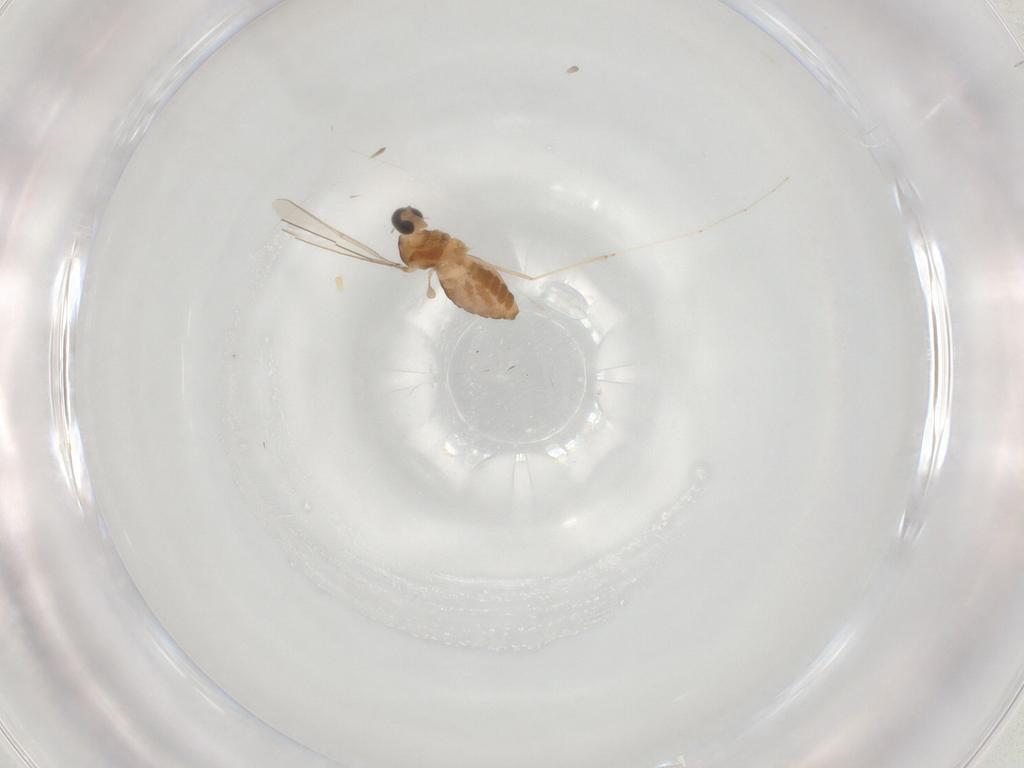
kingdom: Animalia
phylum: Arthropoda
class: Insecta
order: Diptera
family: Cecidomyiidae
